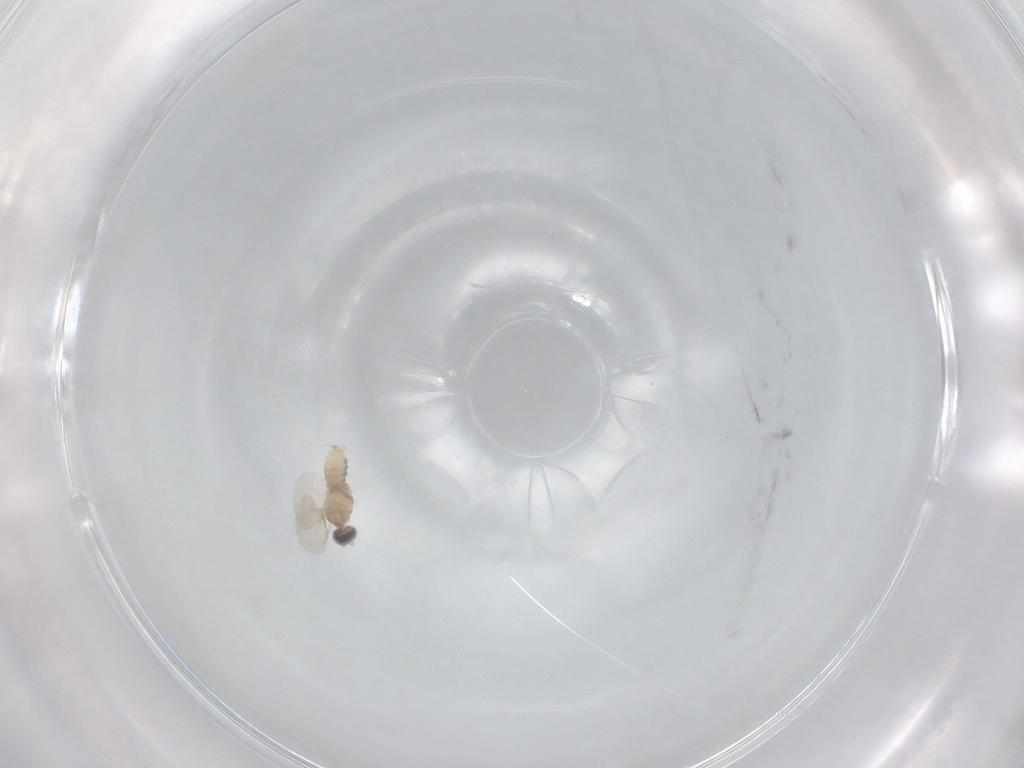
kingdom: Animalia
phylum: Arthropoda
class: Insecta
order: Diptera
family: Cecidomyiidae
